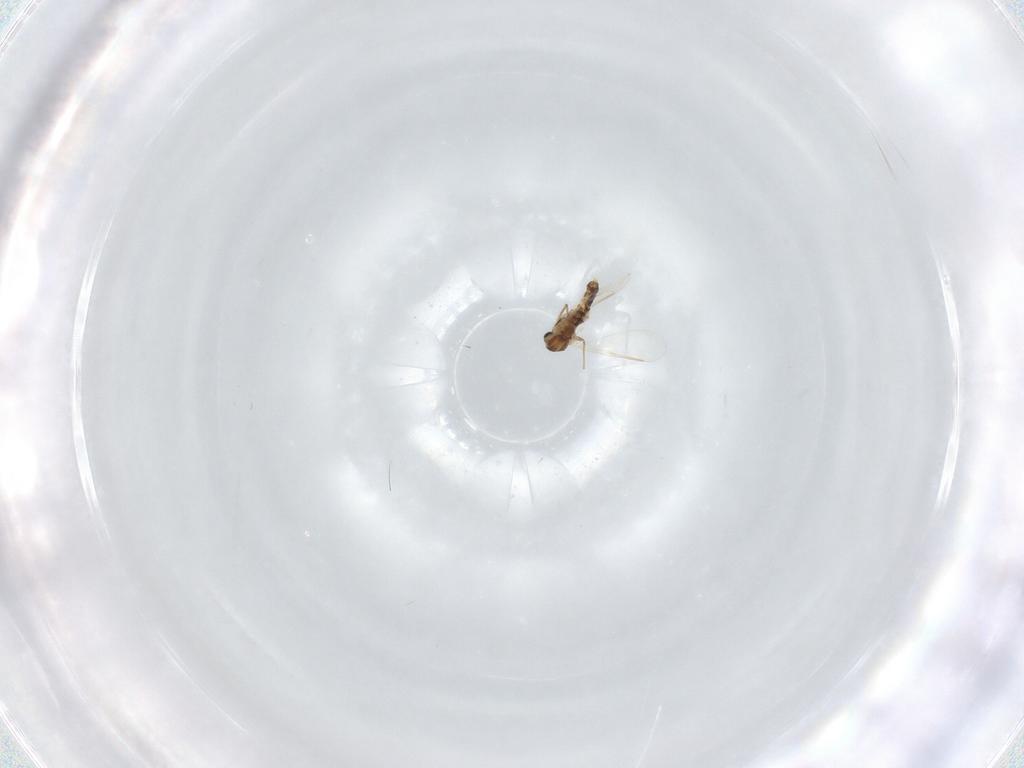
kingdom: Animalia
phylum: Arthropoda
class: Insecta
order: Diptera
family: Chironomidae
